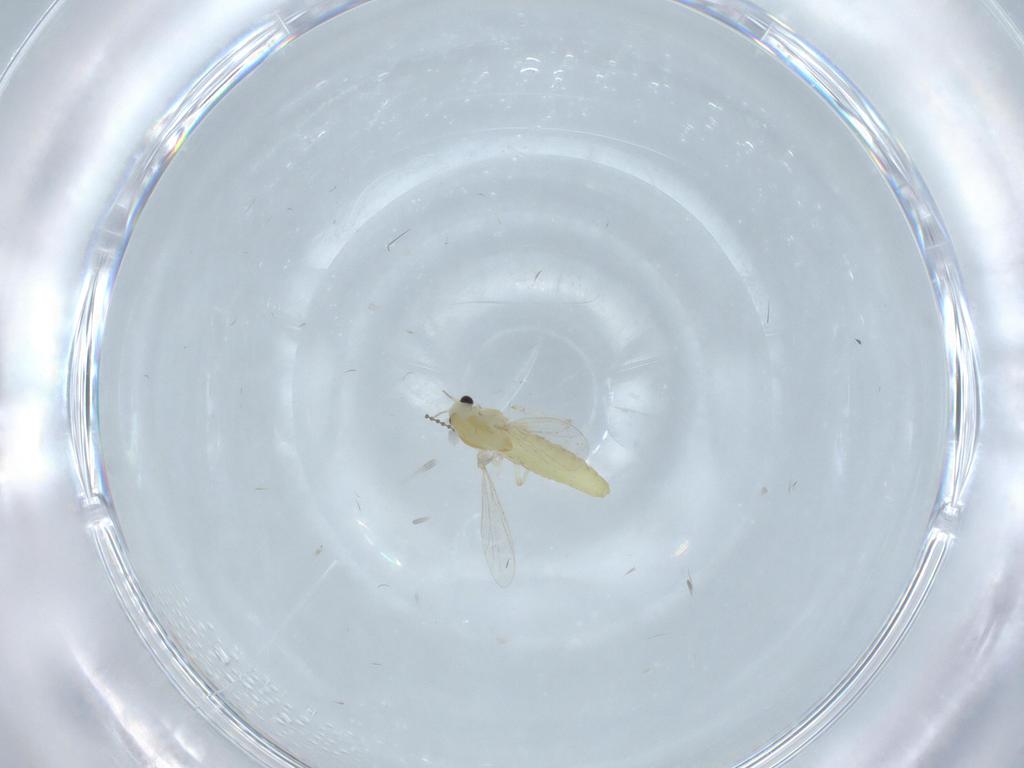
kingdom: Animalia
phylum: Arthropoda
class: Insecta
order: Diptera
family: Chironomidae
